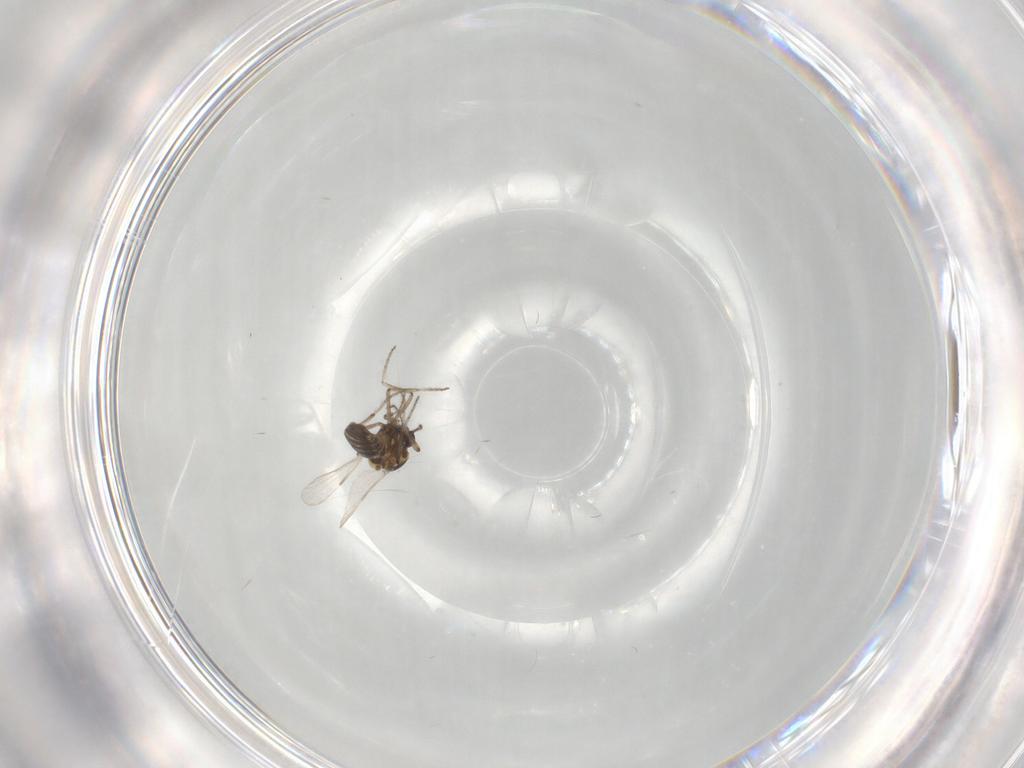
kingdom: Animalia
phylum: Arthropoda
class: Insecta
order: Diptera
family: Ceratopogonidae
